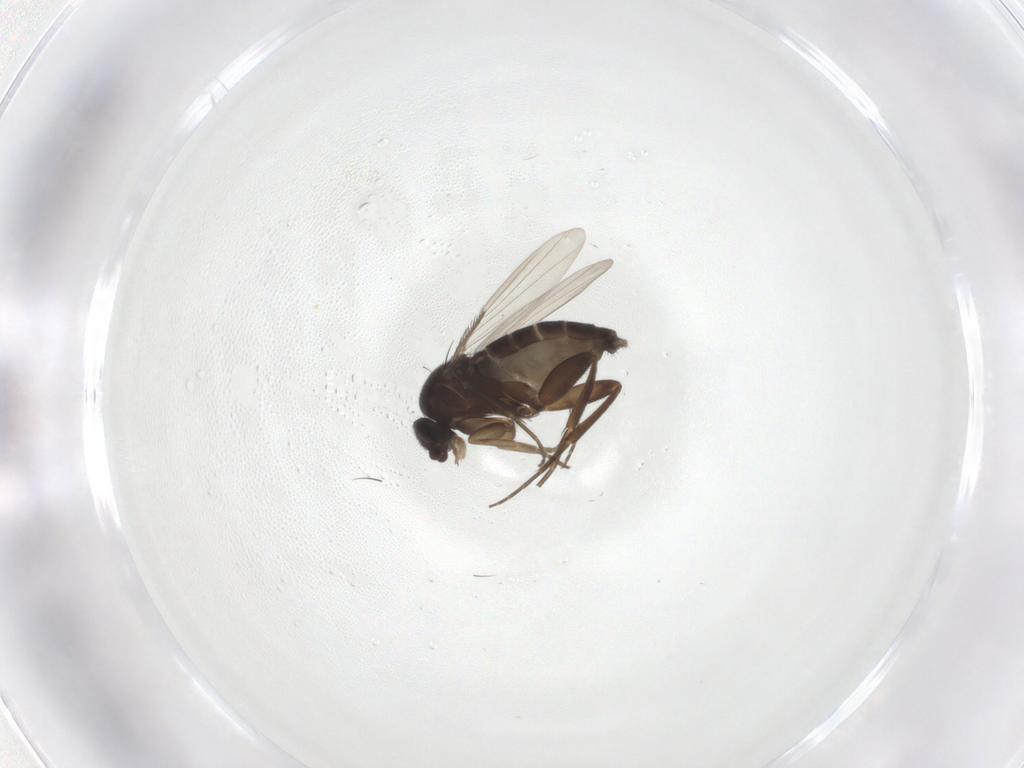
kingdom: Animalia
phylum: Arthropoda
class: Insecta
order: Diptera
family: Phoridae
